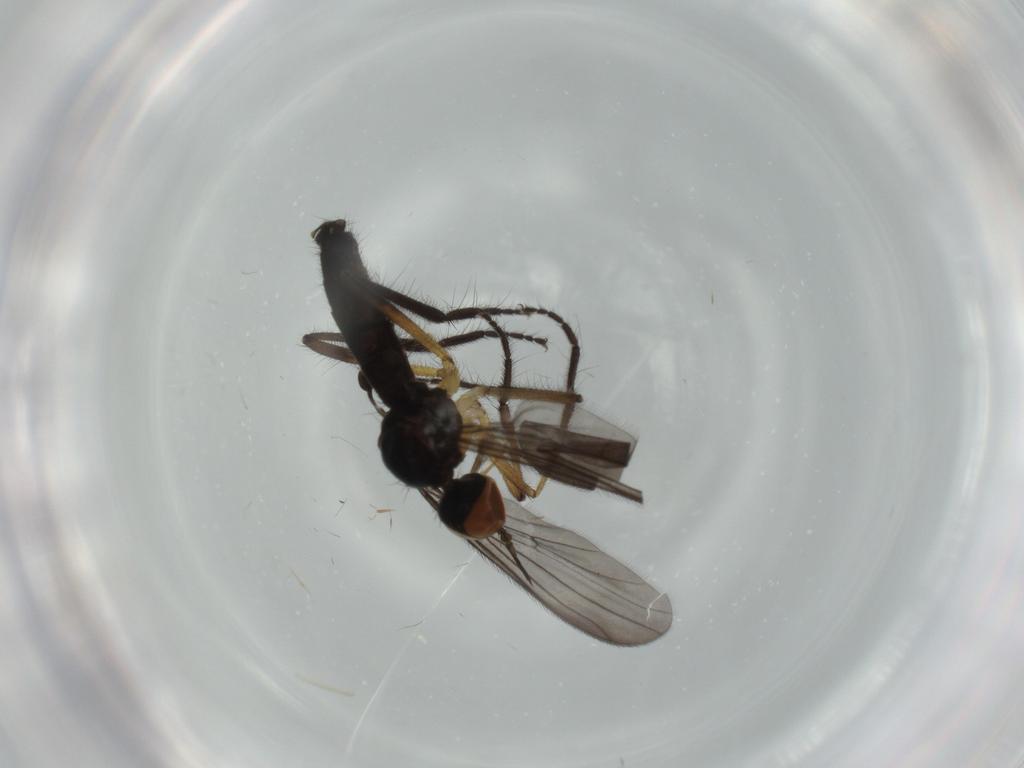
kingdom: Animalia
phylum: Arthropoda
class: Insecta
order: Diptera
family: Empididae
